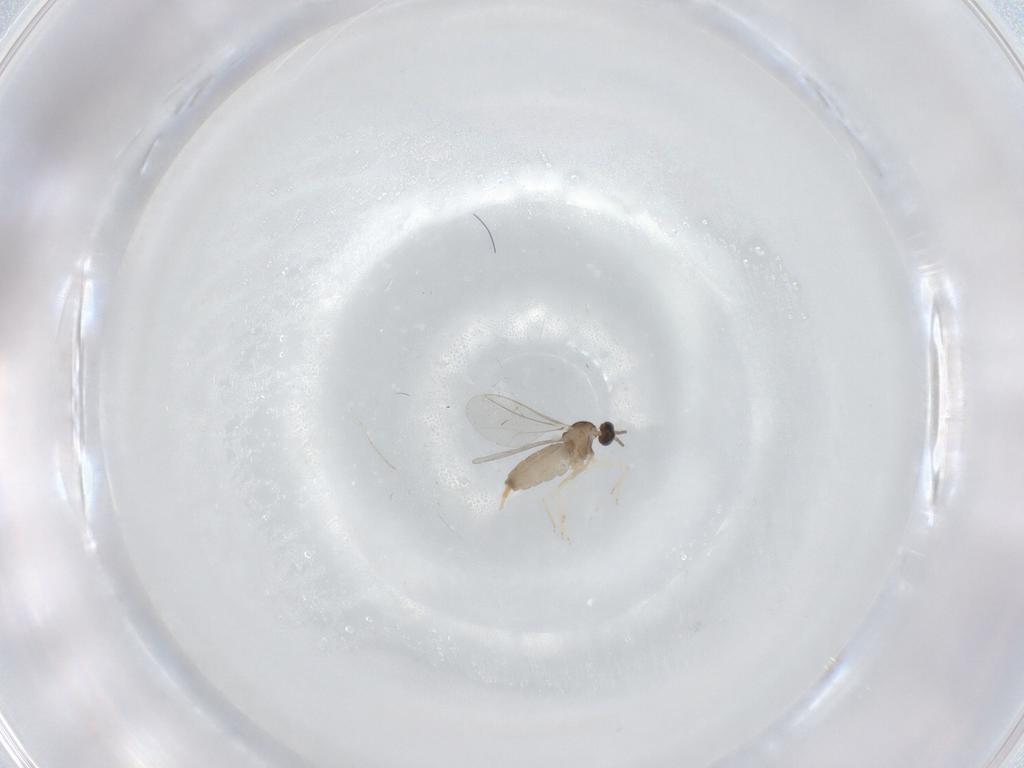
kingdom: Animalia
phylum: Arthropoda
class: Insecta
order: Diptera
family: Cecidomyiidae
